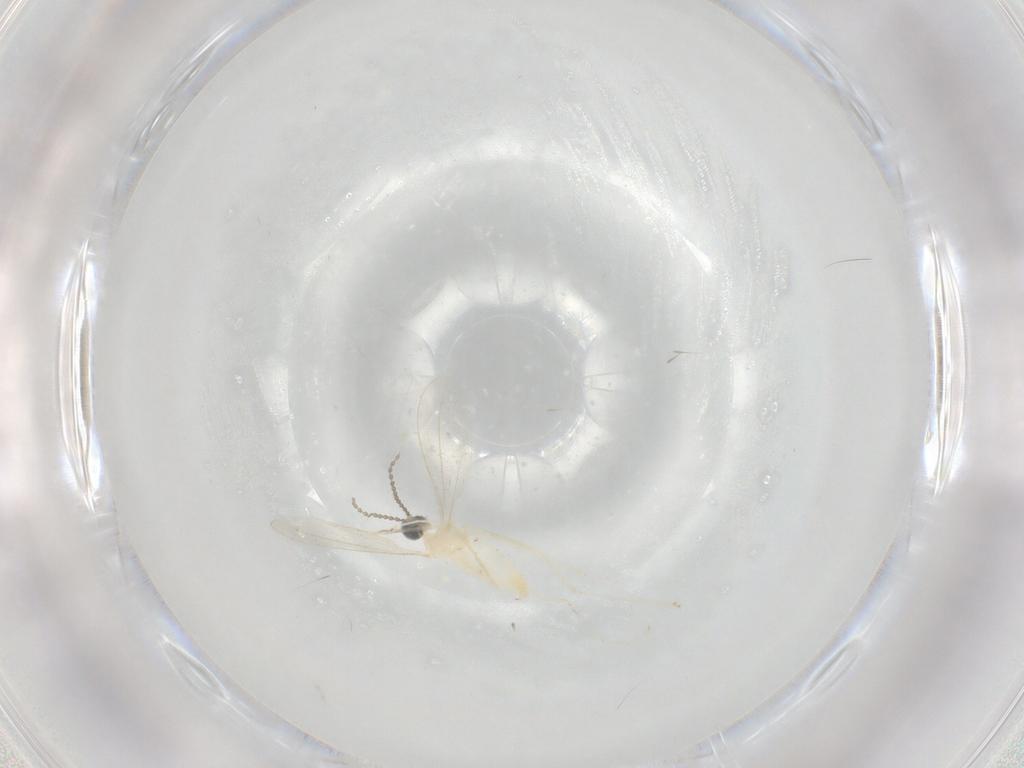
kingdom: Animalia
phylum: Arthropoda
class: Insecta
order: Diptera
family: Cecidomyiidae
